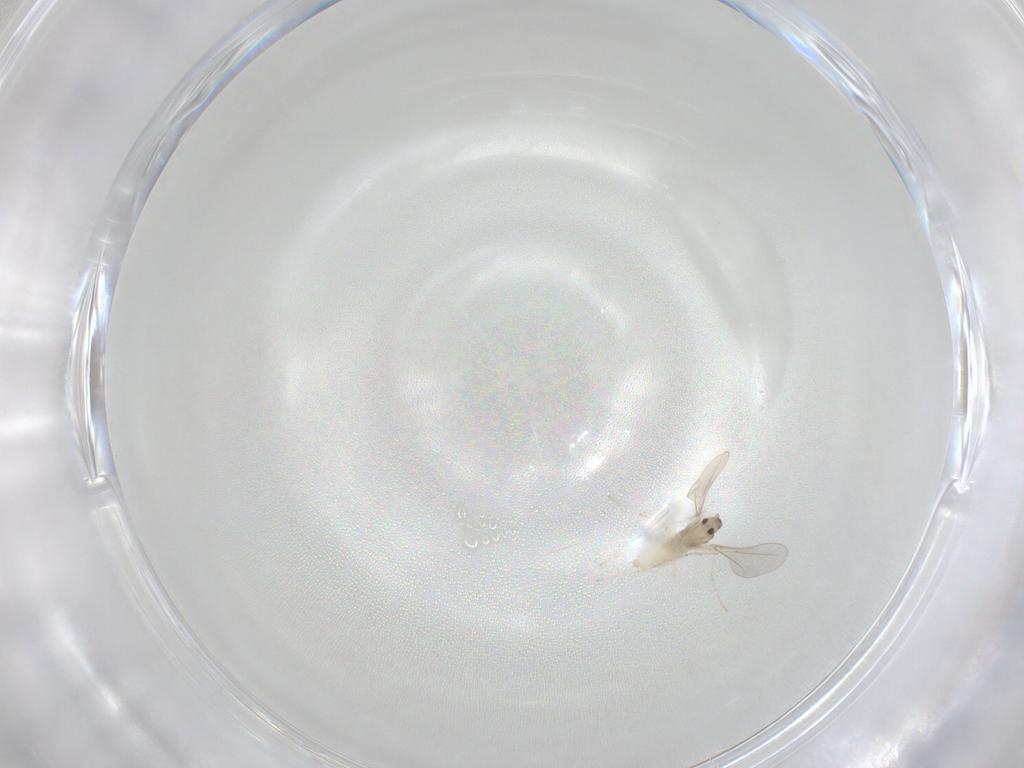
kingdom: Animalia
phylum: Arthropoda
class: Insecta
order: Diptera
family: Cecidomyiidae
